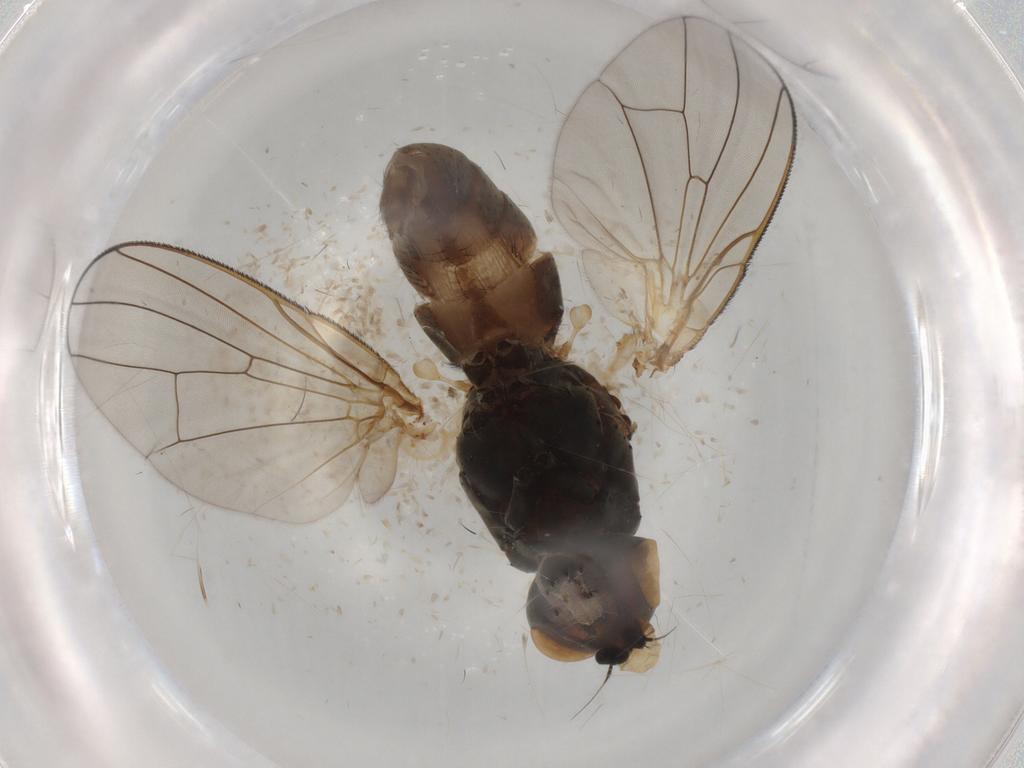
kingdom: Animalia
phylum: Arthropoda
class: Insecta
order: Diptera
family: Anthomyiidae
